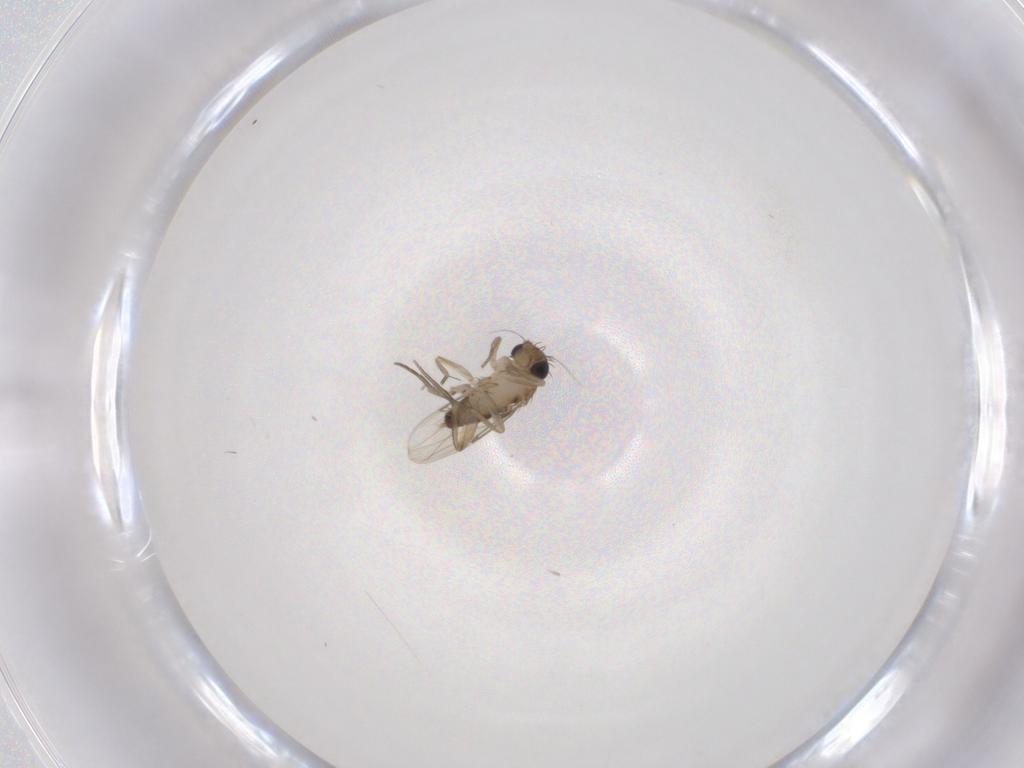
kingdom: Animalia
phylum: Arthropoda
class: Insecta
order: Diptera
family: Phoridae
